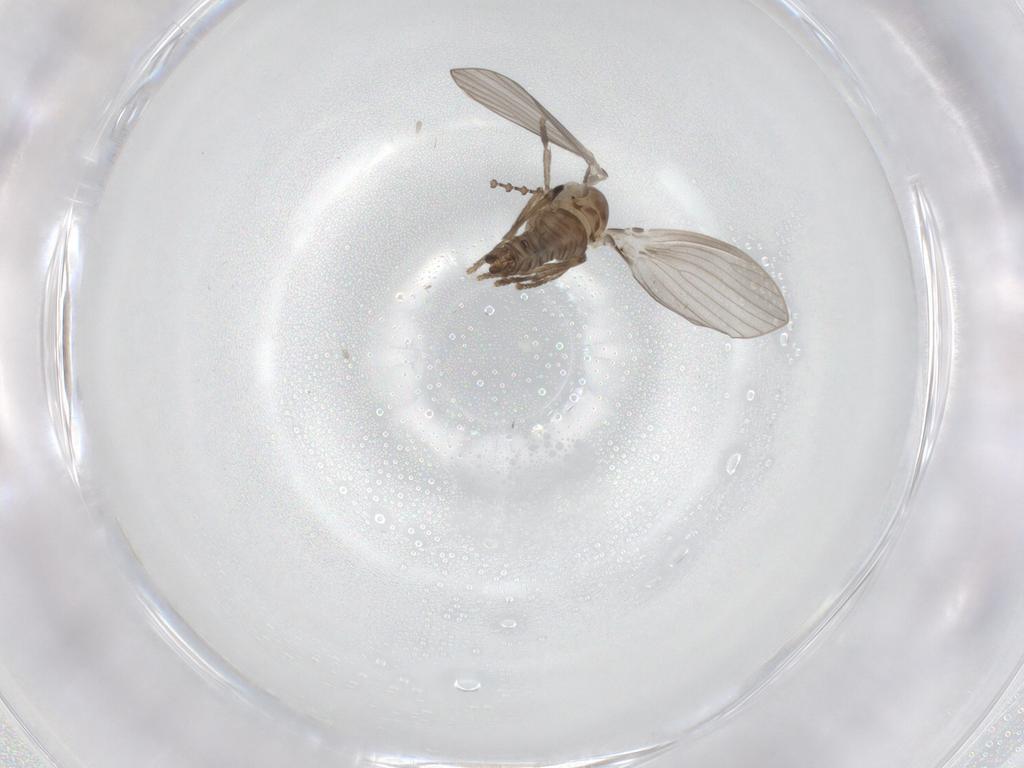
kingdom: Animalia
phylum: Arthropoda
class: Insecta
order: Diptera
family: Psychodidae
